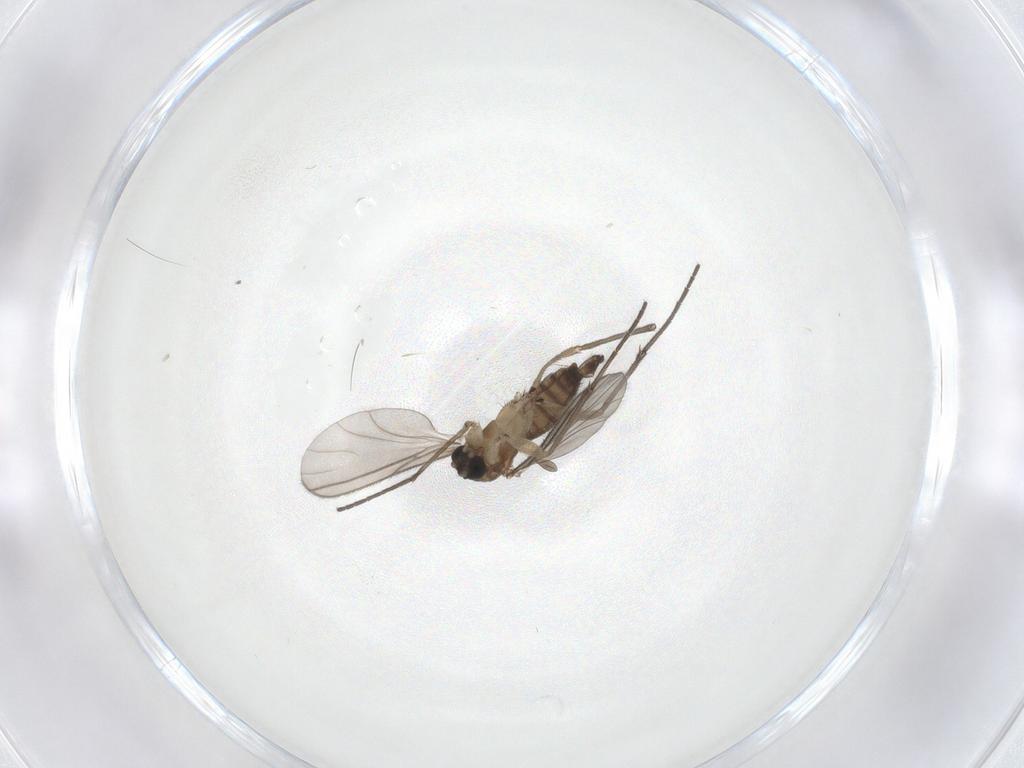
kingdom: Animalia
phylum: Arthropoda
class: Insecta
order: Diptera
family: Sciaridae
